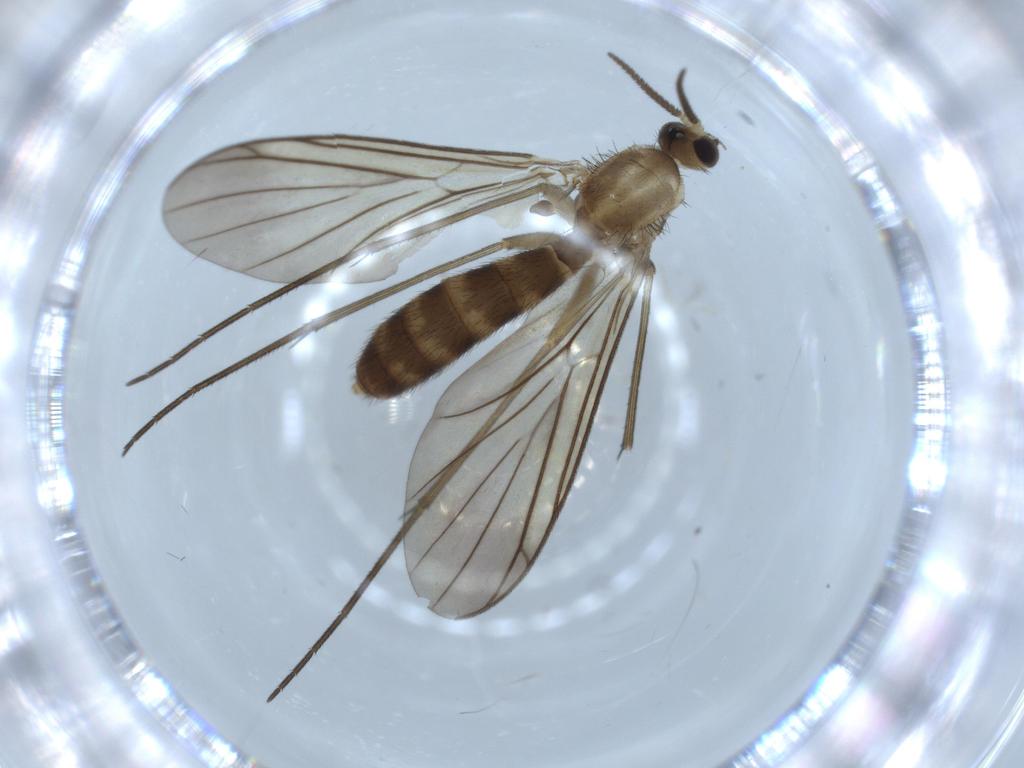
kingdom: Animalia
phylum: Arthropoda
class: Insecta
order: Diptera
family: Mycetophilidae
